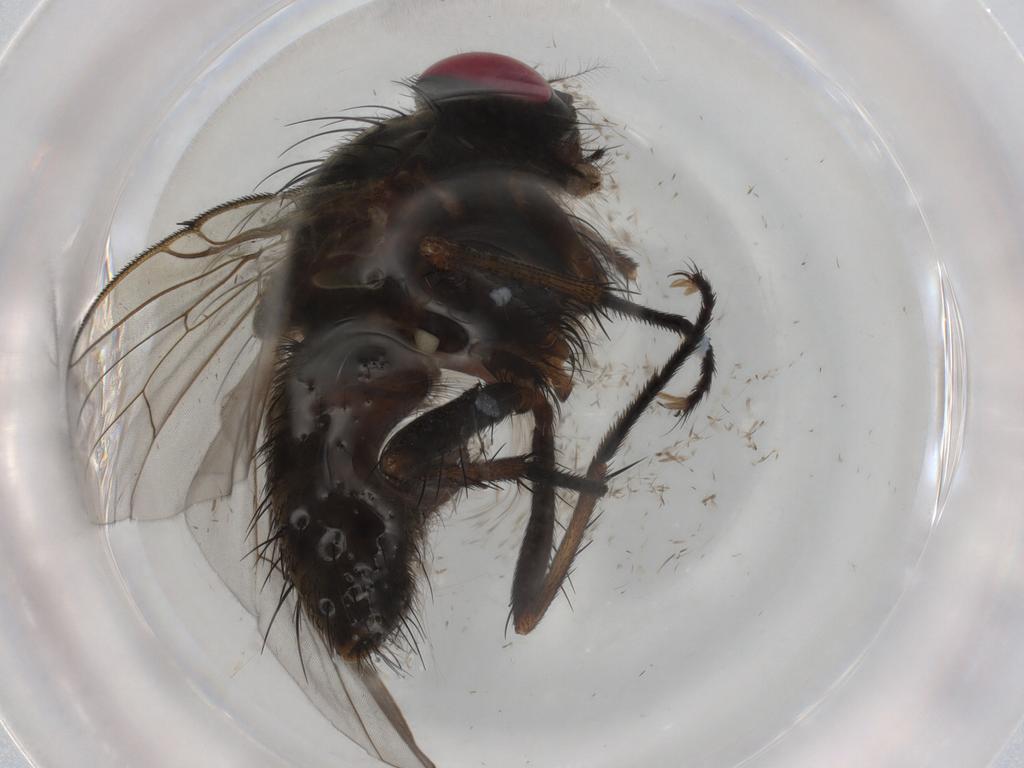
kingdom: Animalia
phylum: Arthropoda
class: Insecta
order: Diptera
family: Muscidae
